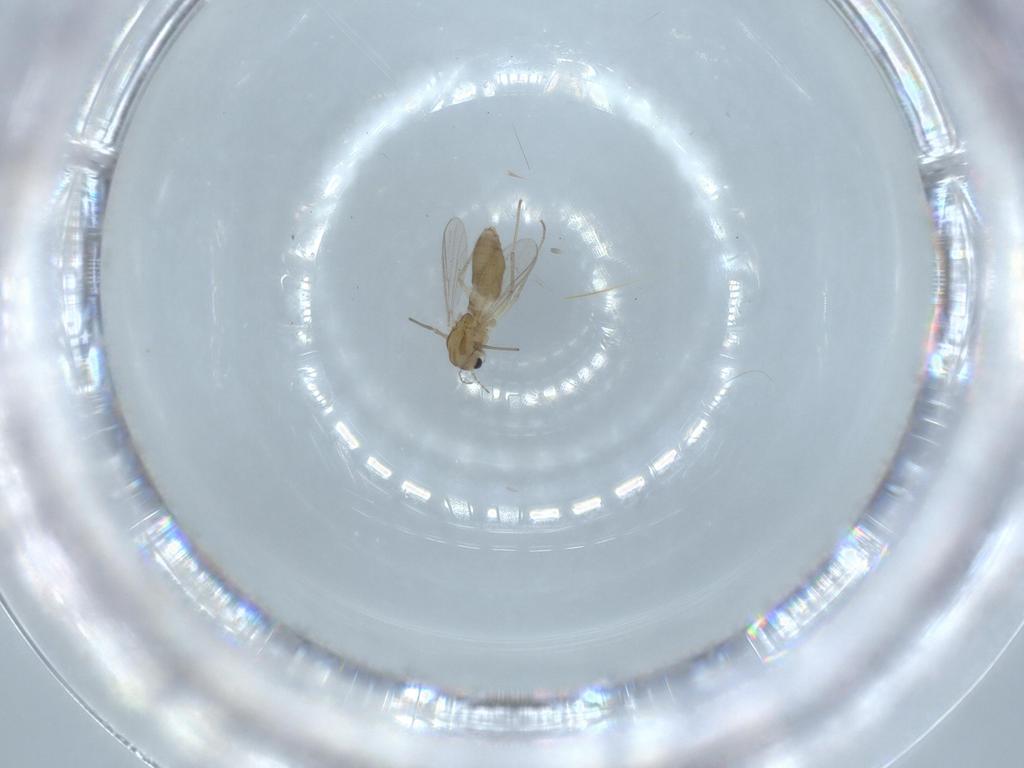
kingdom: Animalia
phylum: Arthropoda
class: Insecta
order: Diptera
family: Chironomidae
